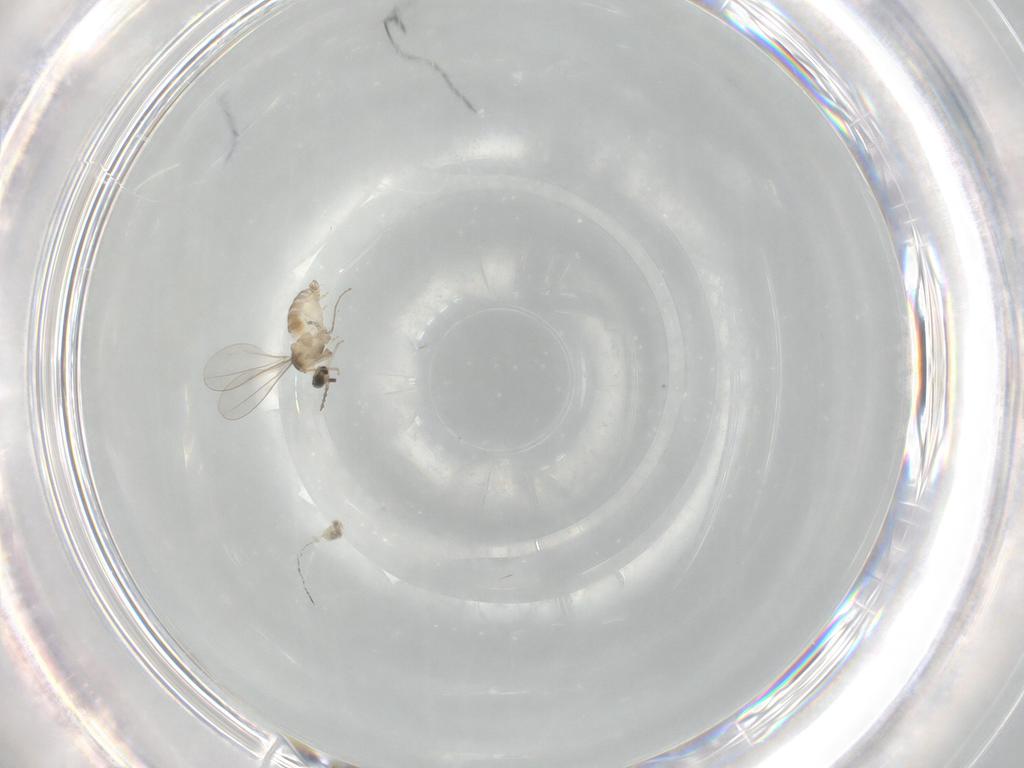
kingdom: Animalia
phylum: Arthropoda
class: Insecta
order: Diptera
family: Cecidomyiidae
